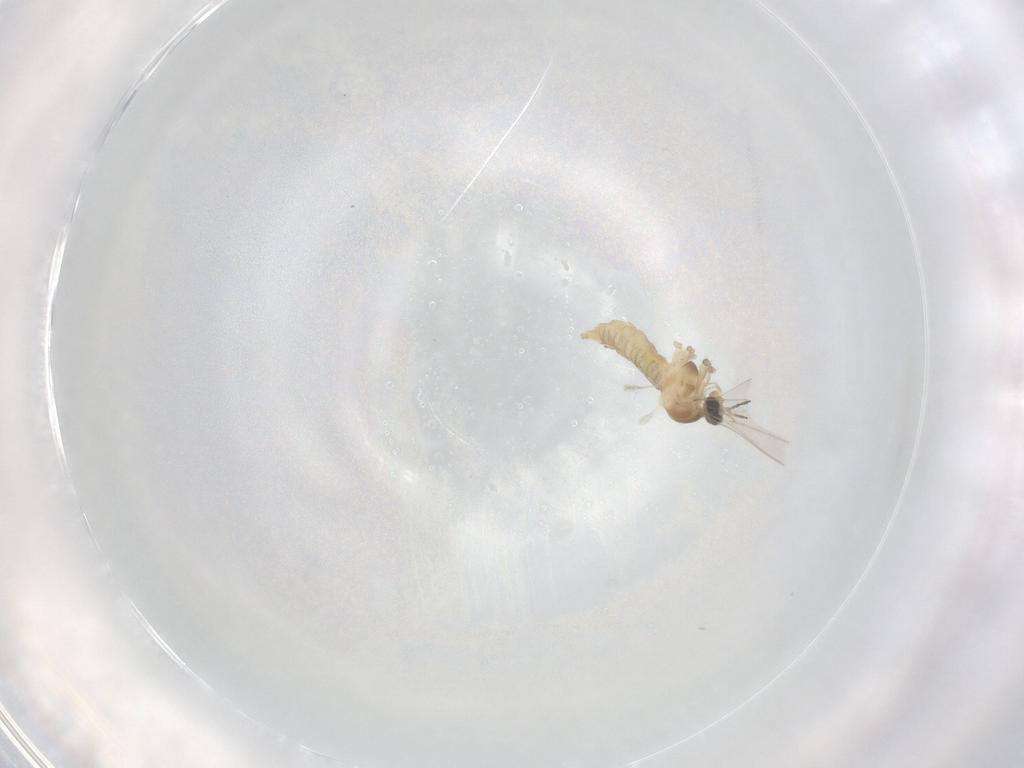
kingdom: Animalia
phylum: Arthropoda
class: Insecta
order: Diptera
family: Cecidomyiidae
